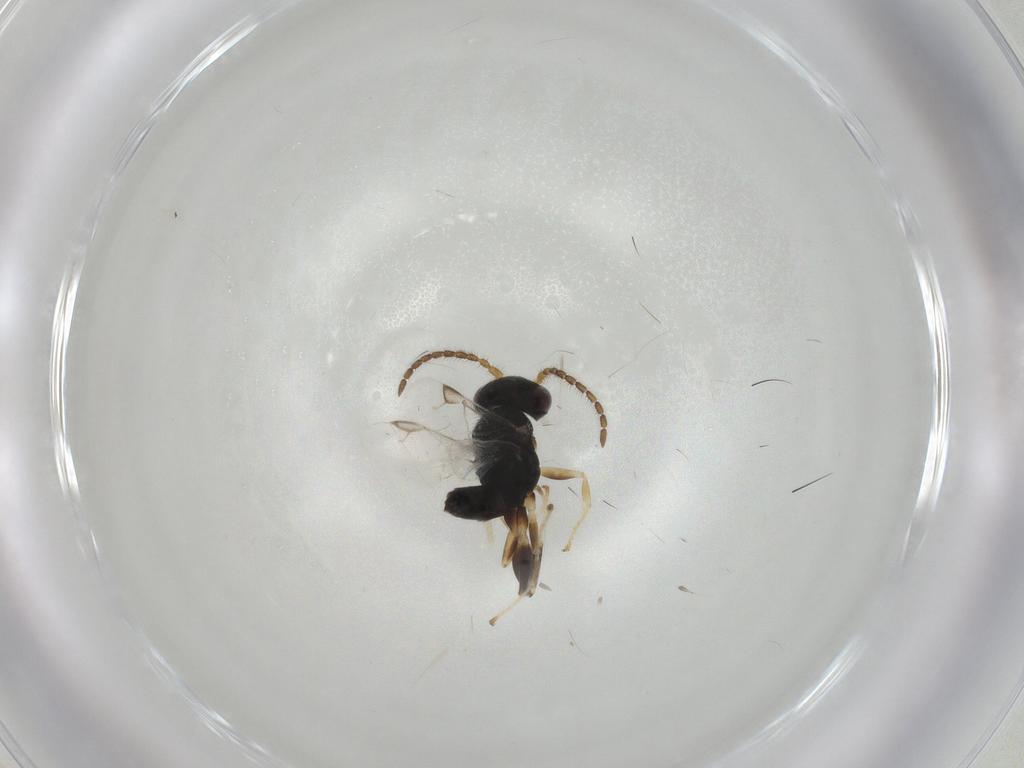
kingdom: Animalia
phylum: Arthropoda
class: Insecta
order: Hymenoptera
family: Dryinidae
